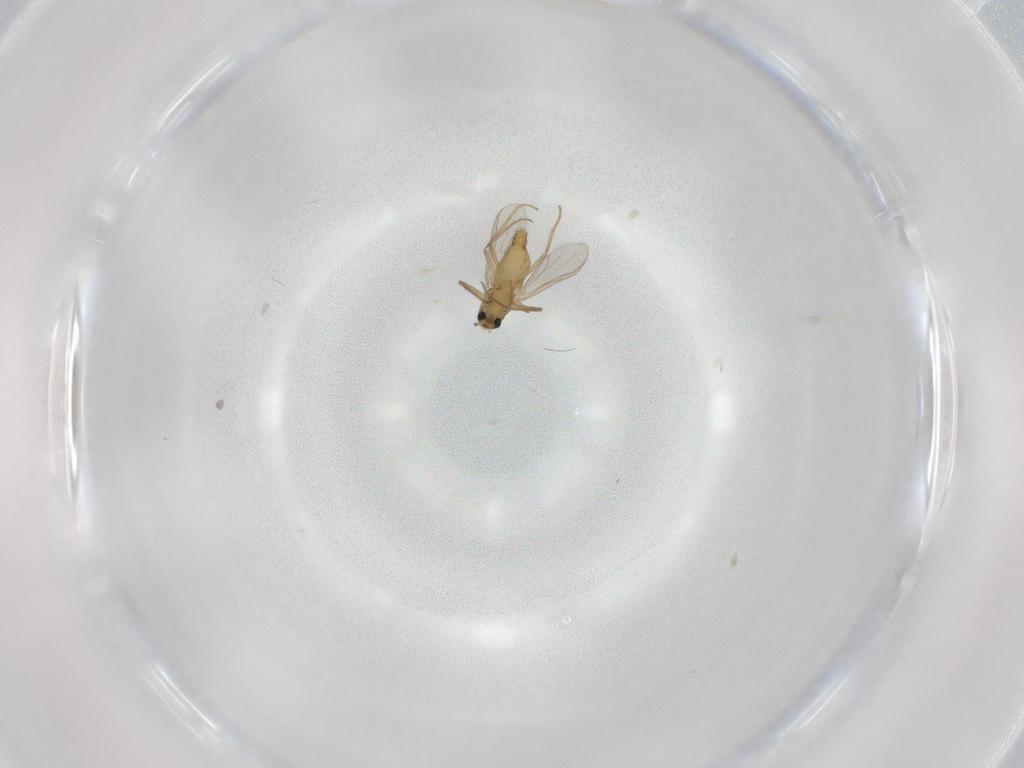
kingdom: Animalia
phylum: Arthropoda
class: Insecta
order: Diptera
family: Chironomidae
